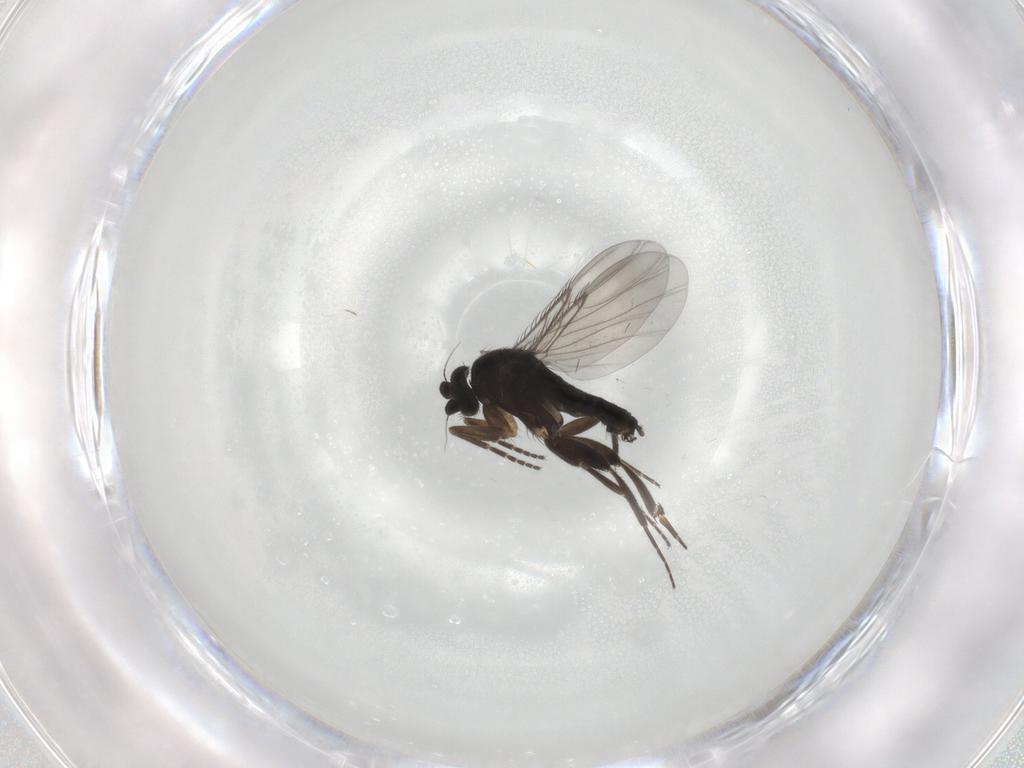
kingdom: Animalia
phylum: Arthropoda
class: Insecta
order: Diptera
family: Phoridae
